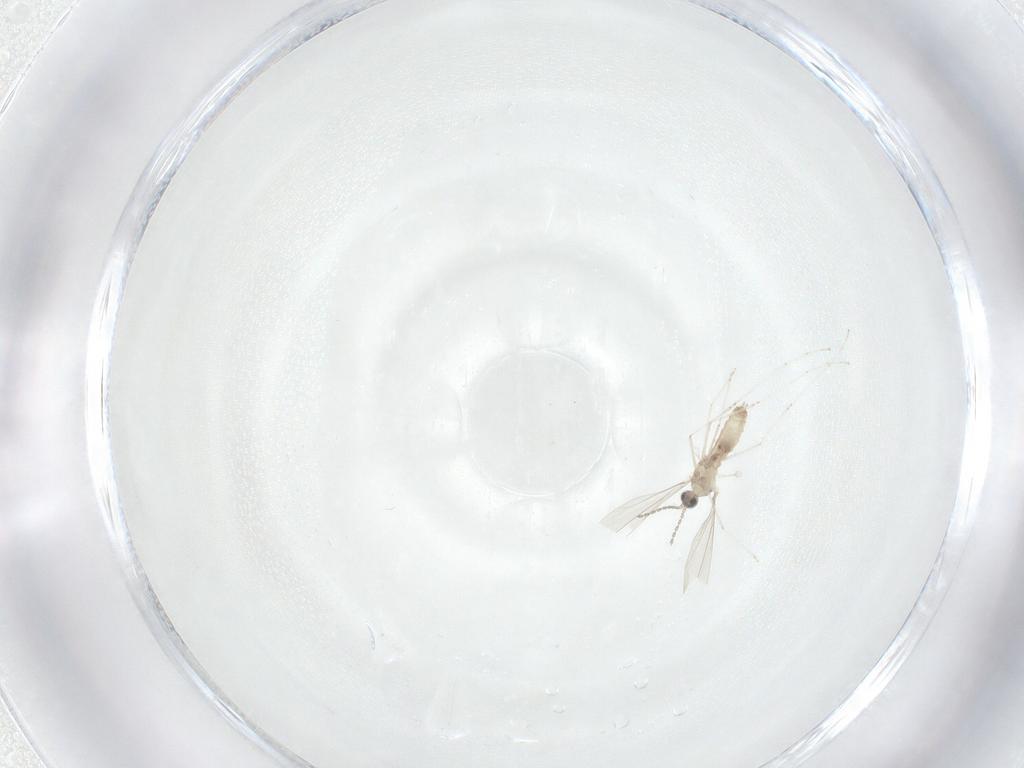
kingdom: Animalia
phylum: Arthropoda
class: Insecta
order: Diptera
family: Cecidomyiidae
